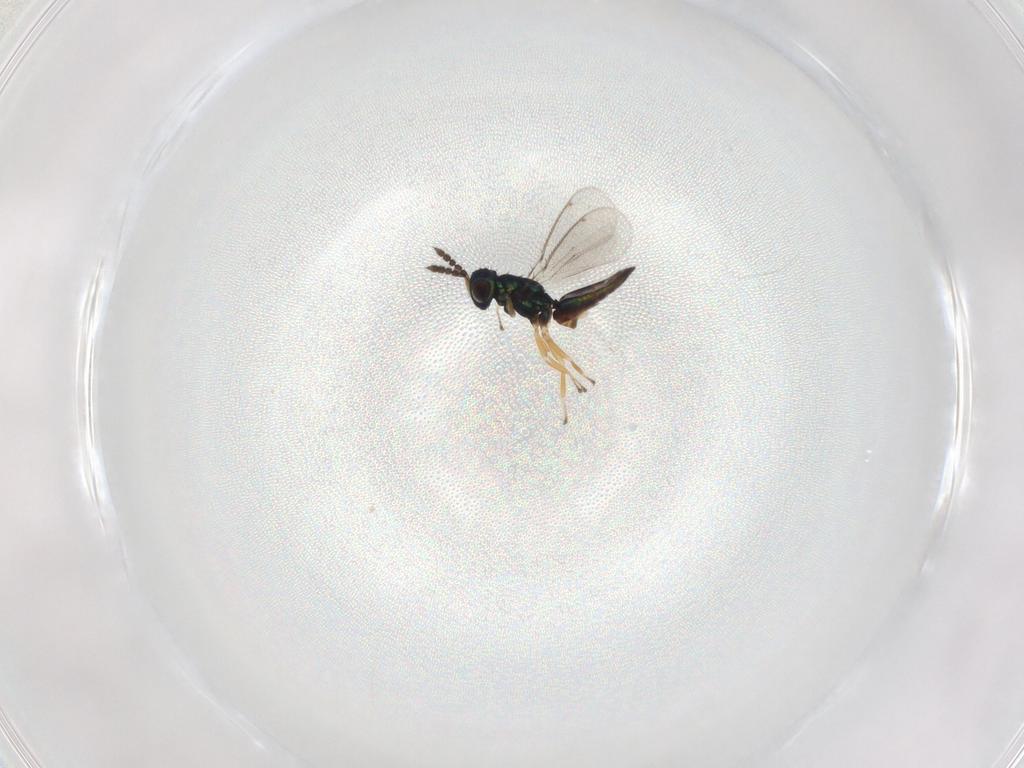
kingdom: Animalia
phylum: Arthropoda
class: Insecta
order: Hymenoptera
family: Eulophidae
